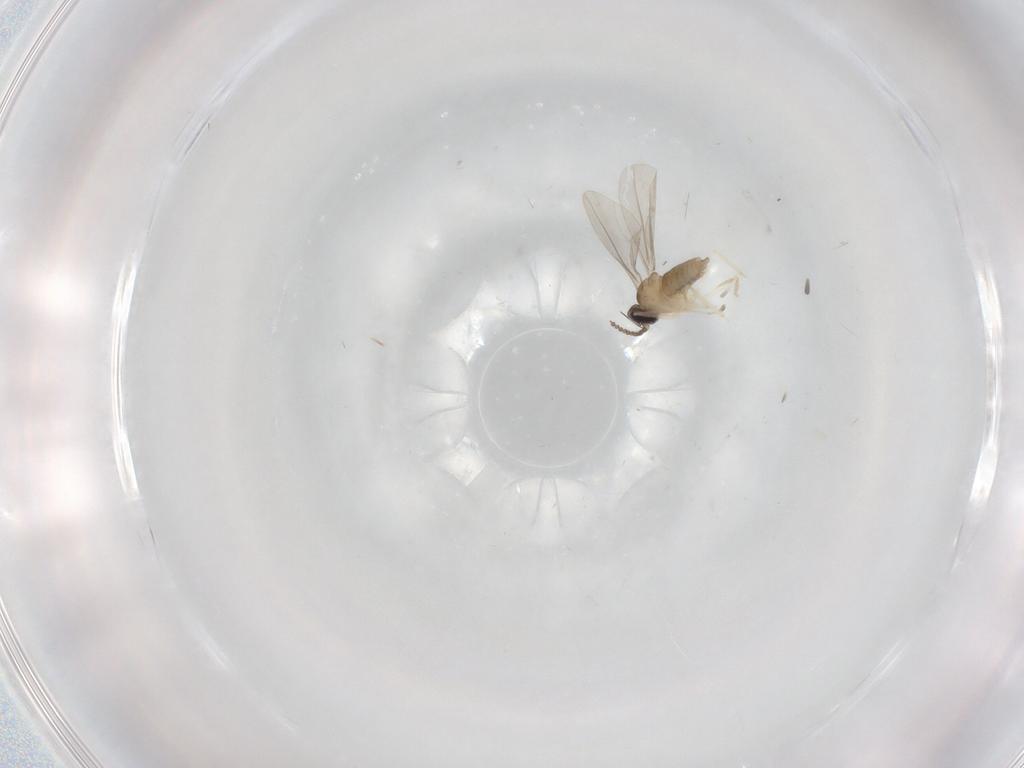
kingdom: Animalia
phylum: Arthropoda
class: Insecta
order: Diptera
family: Cecidomyiidae
